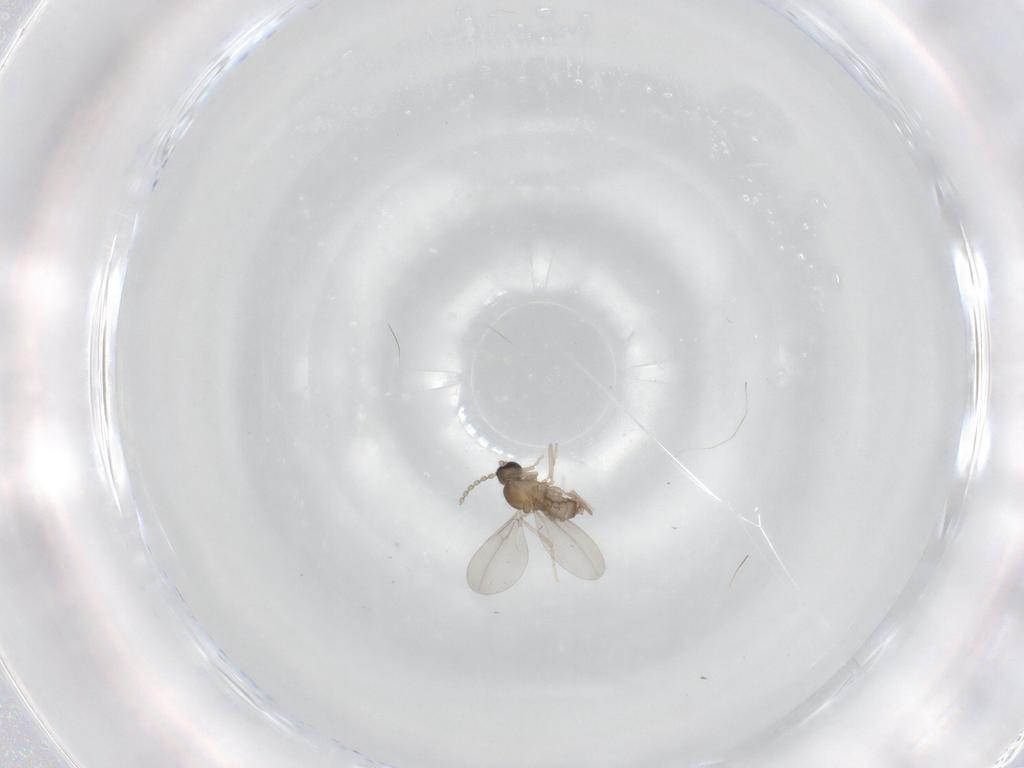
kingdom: Animalia
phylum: Arthropoda
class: Insecta
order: Diptera
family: Cecidomyiidae
